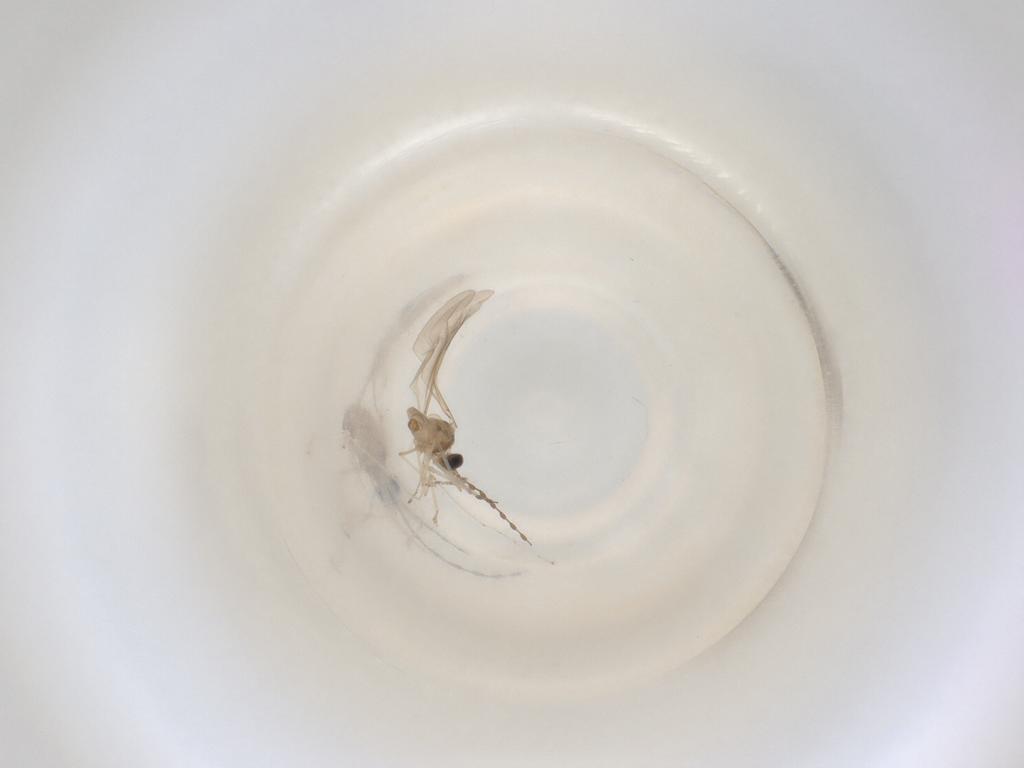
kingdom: Animalia
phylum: Arthropoda
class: Insecta
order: Diptera
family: Cecidomyiidae
